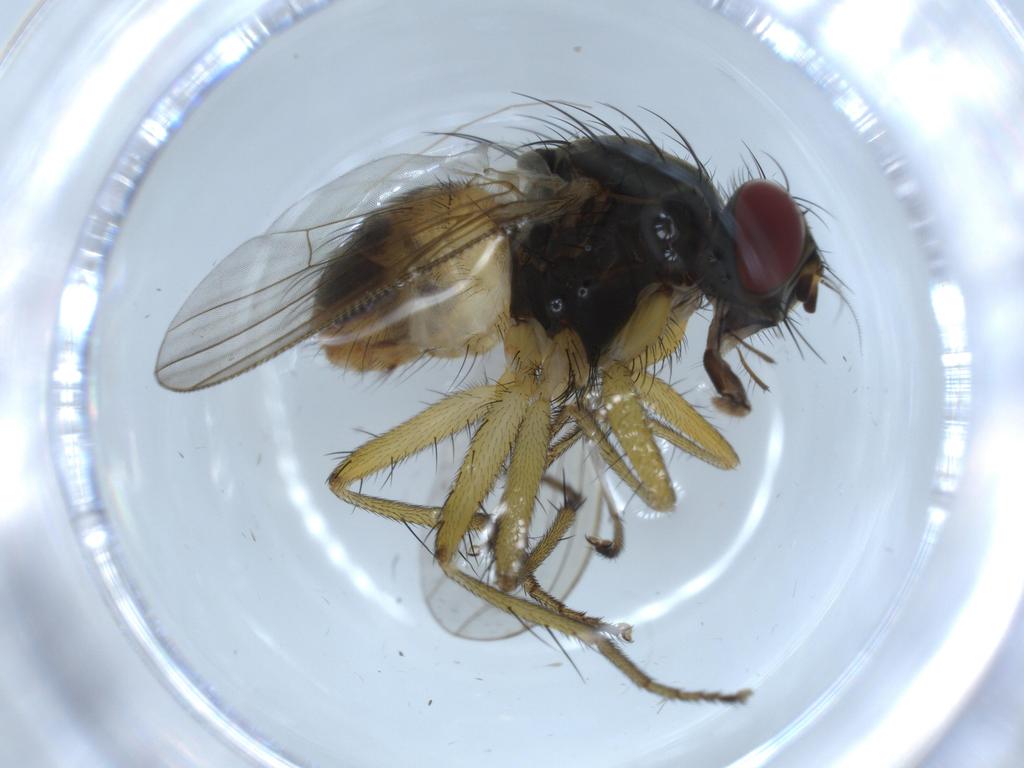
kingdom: Animalia
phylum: Arthropoda
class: Insecta
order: Diptera
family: Muscidae
